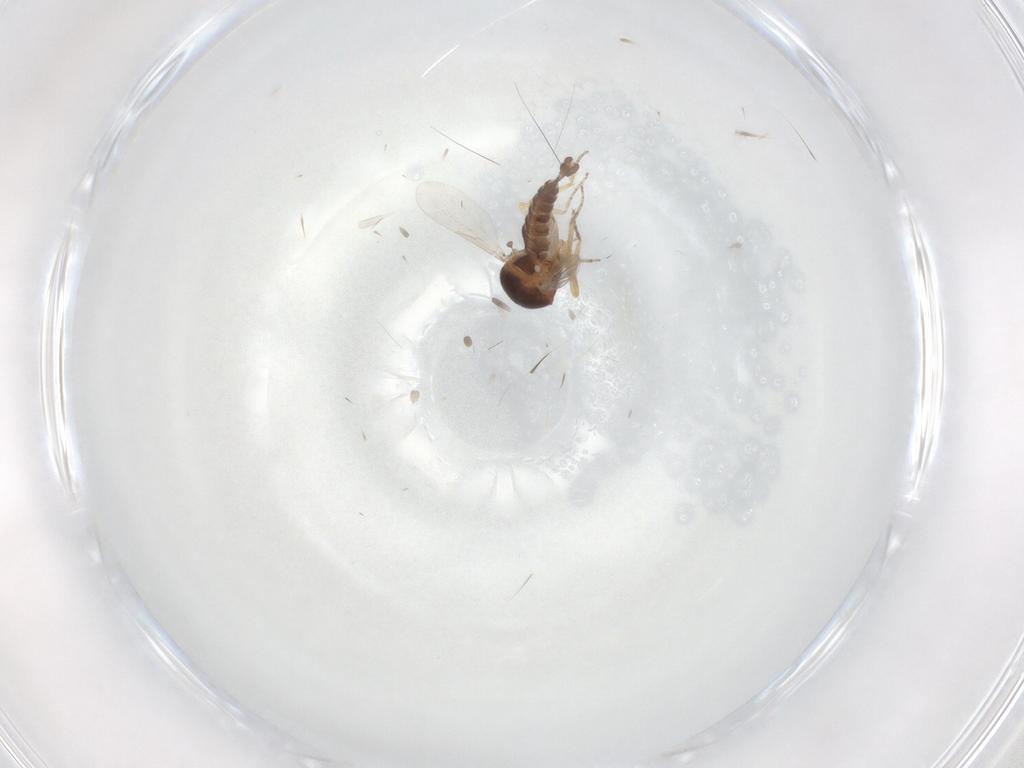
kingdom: Animalia
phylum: Arthropoda
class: Insecta
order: Diptera
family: Ceratopogonidae
